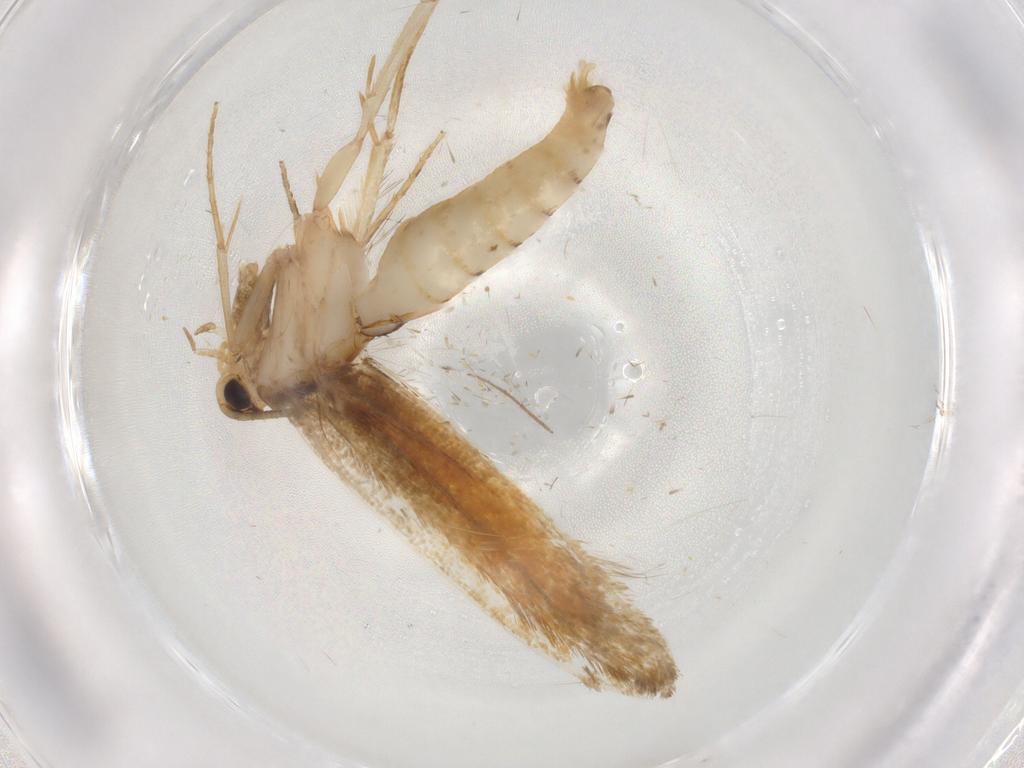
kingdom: Animalia
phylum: Arthropoda
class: Insecta
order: Lepidoptera
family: Tineidae
